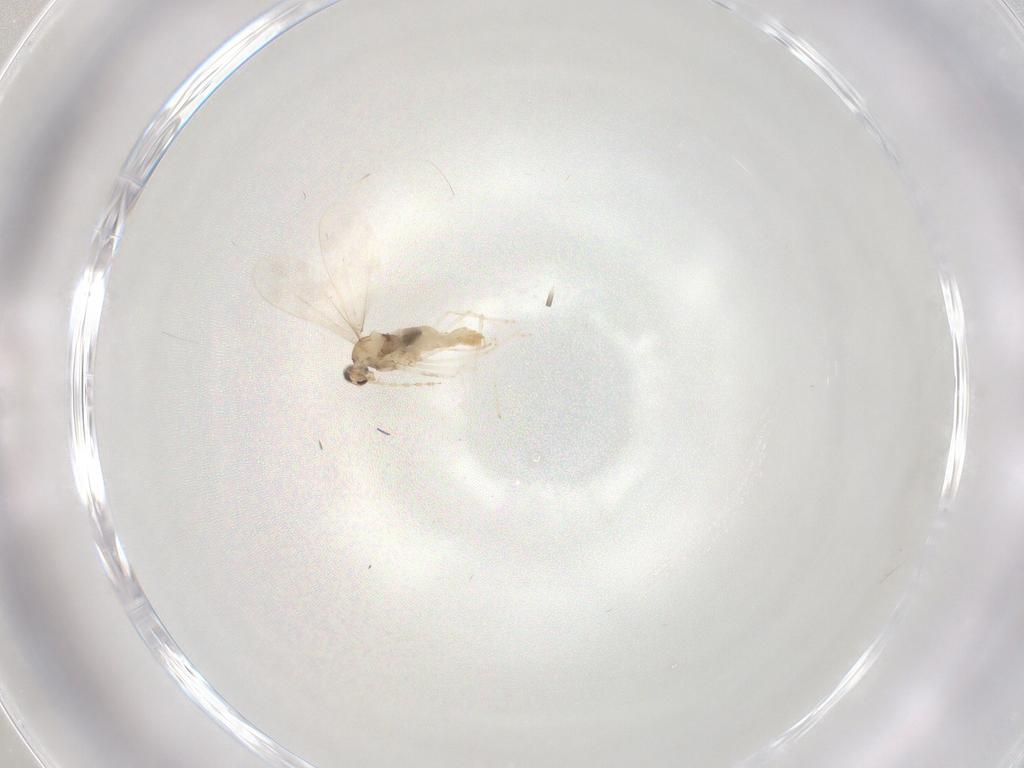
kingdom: Animalia
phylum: Arthropoda
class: Insecta
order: Diptera
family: Cecidomyiidae
